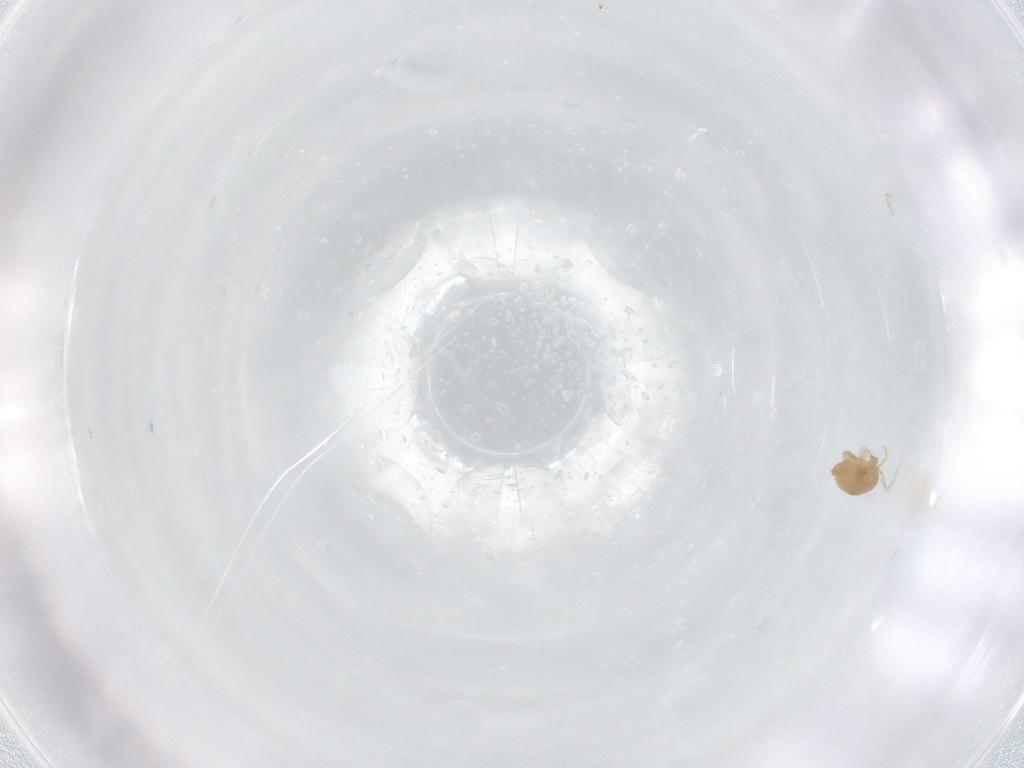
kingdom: Animalia
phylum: Arthropoda
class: Arachnida
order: Trombidiformes
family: Eupodidae
